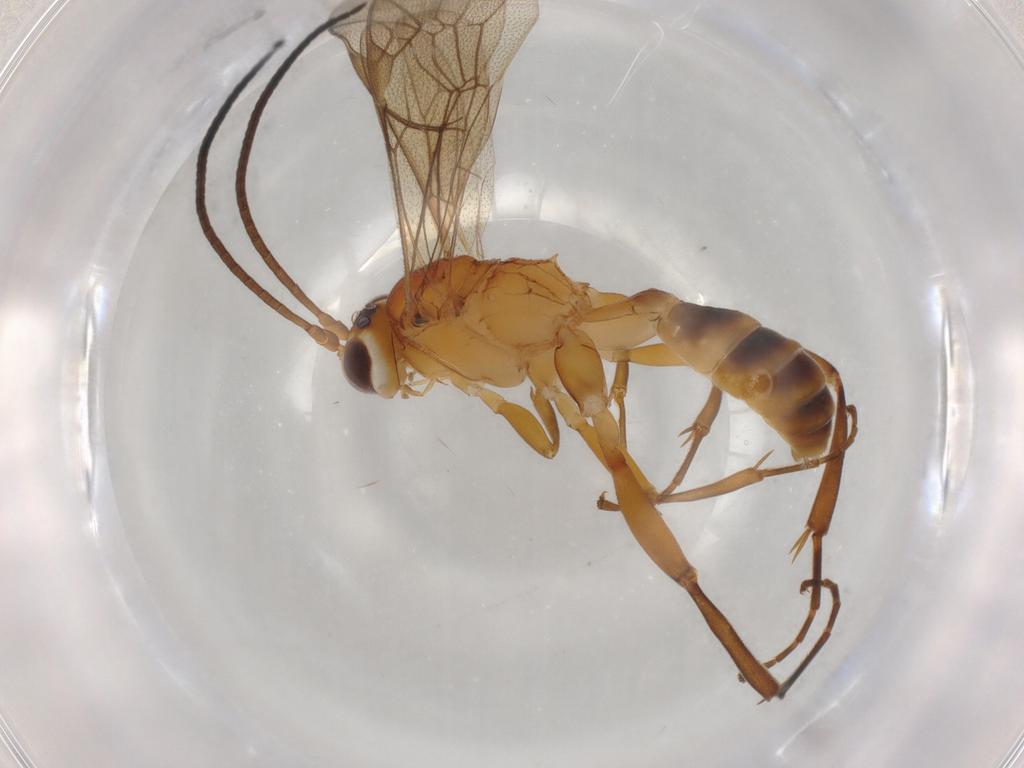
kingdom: Animalia
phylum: Arthropoda
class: Insecta
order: Hymenoptera
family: Ichneumonidae
